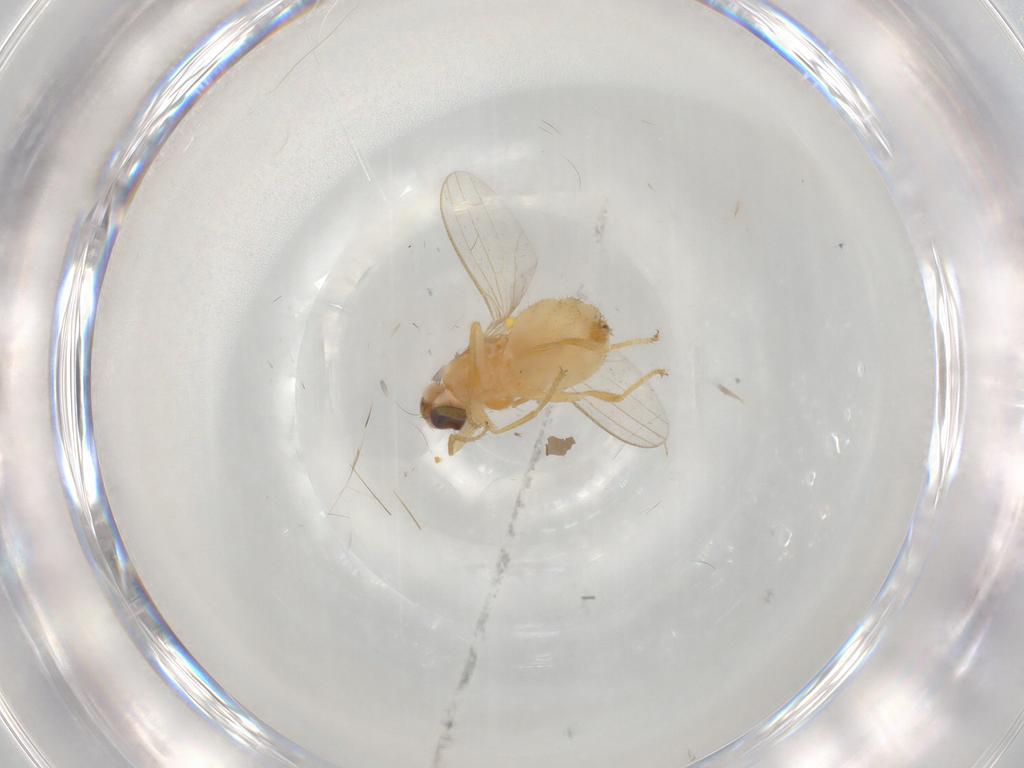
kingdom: Animalia
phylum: Arthropoda
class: Insecta
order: Diptera
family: Chyromyidae
